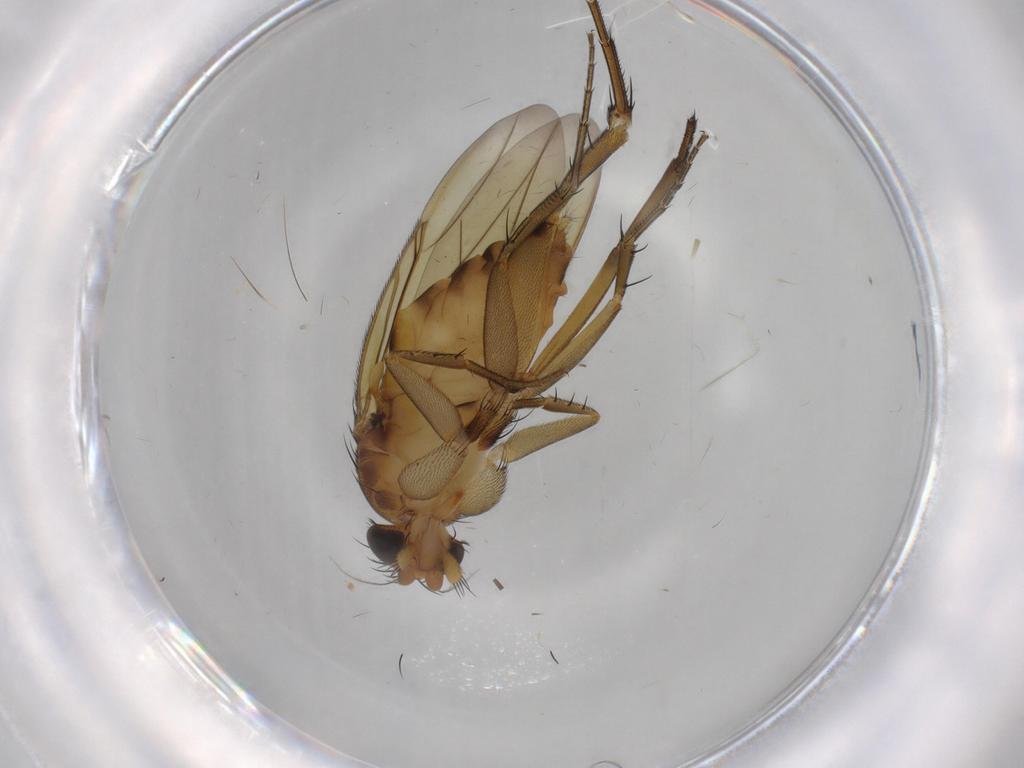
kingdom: Animalia
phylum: Arthropoda
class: Insecta
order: Diptera
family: Phoridae
